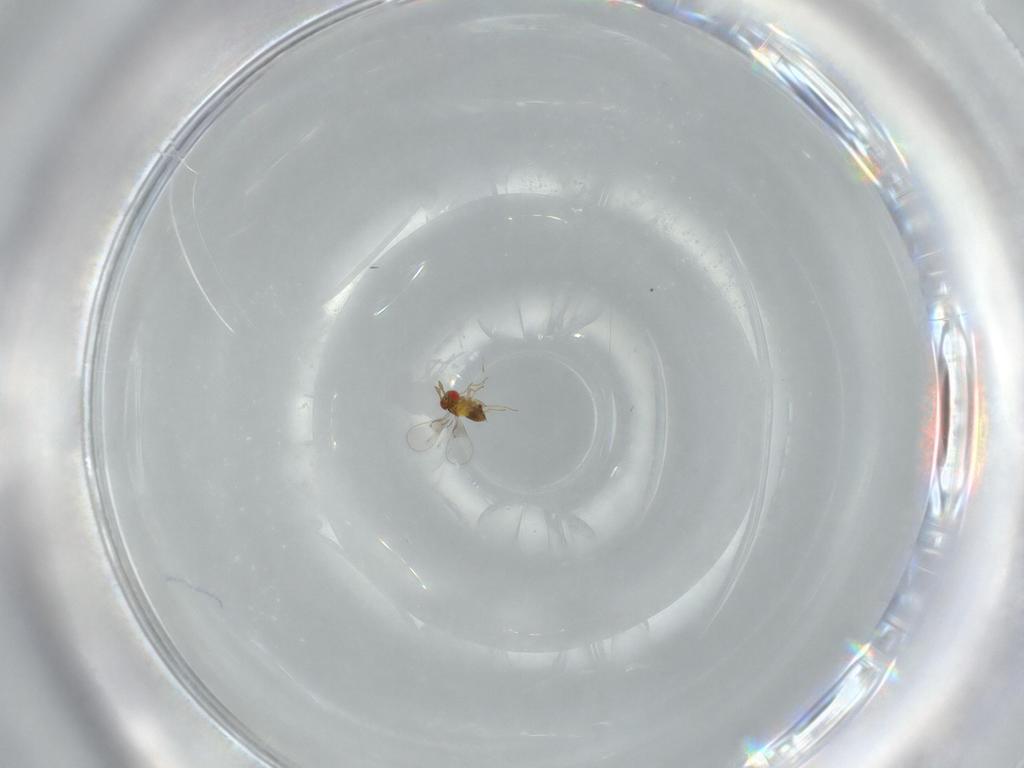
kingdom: Animalia
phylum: Arthropoda
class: Insecta
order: Hymenoptera
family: Trichogrammatidae
